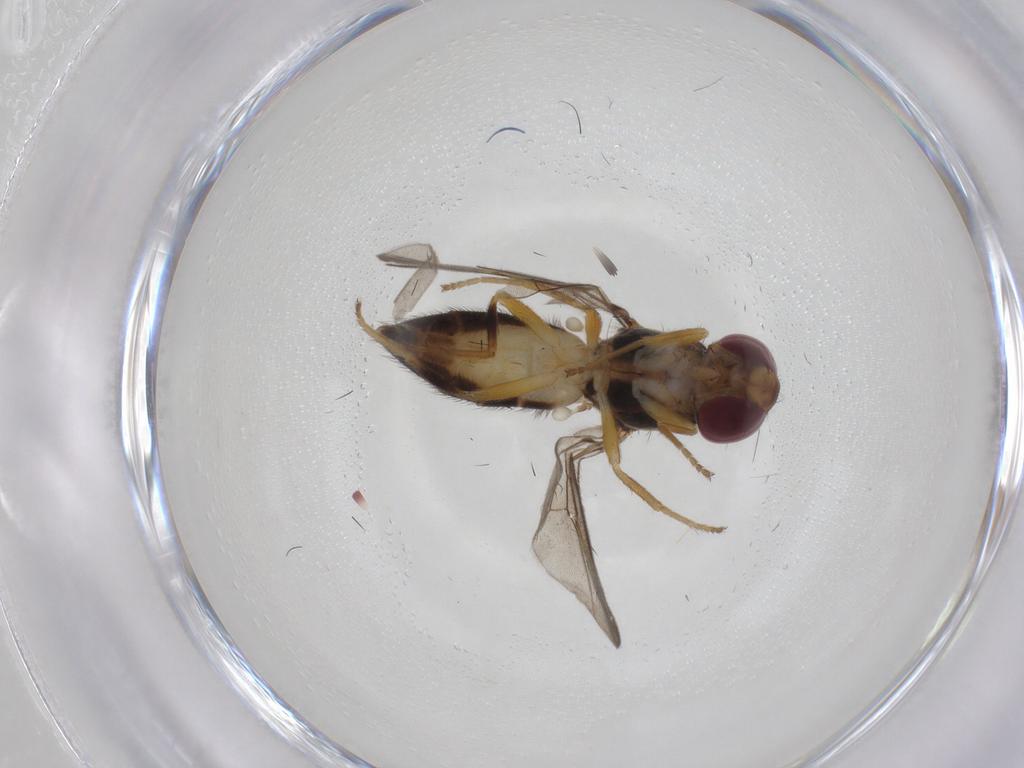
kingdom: Animalia
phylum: Arthropoda
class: Insecta
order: Diptera
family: Chloropidae
